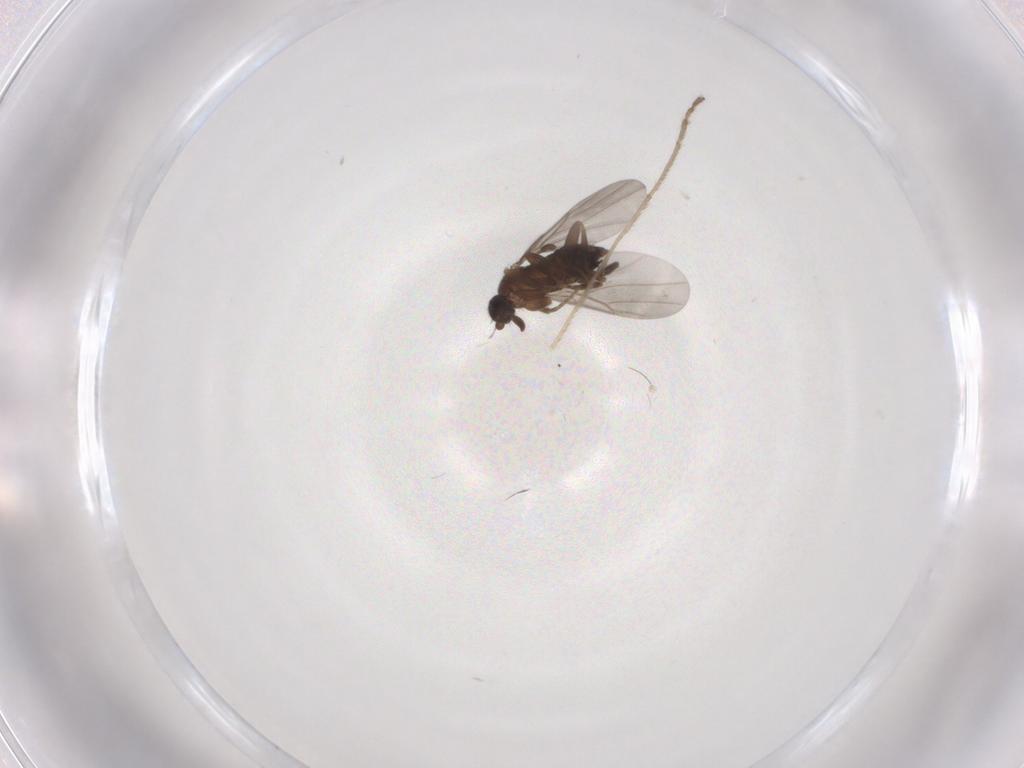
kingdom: Animalia
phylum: Arthropoda
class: Insecta
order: Diptera
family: Limoniidae
